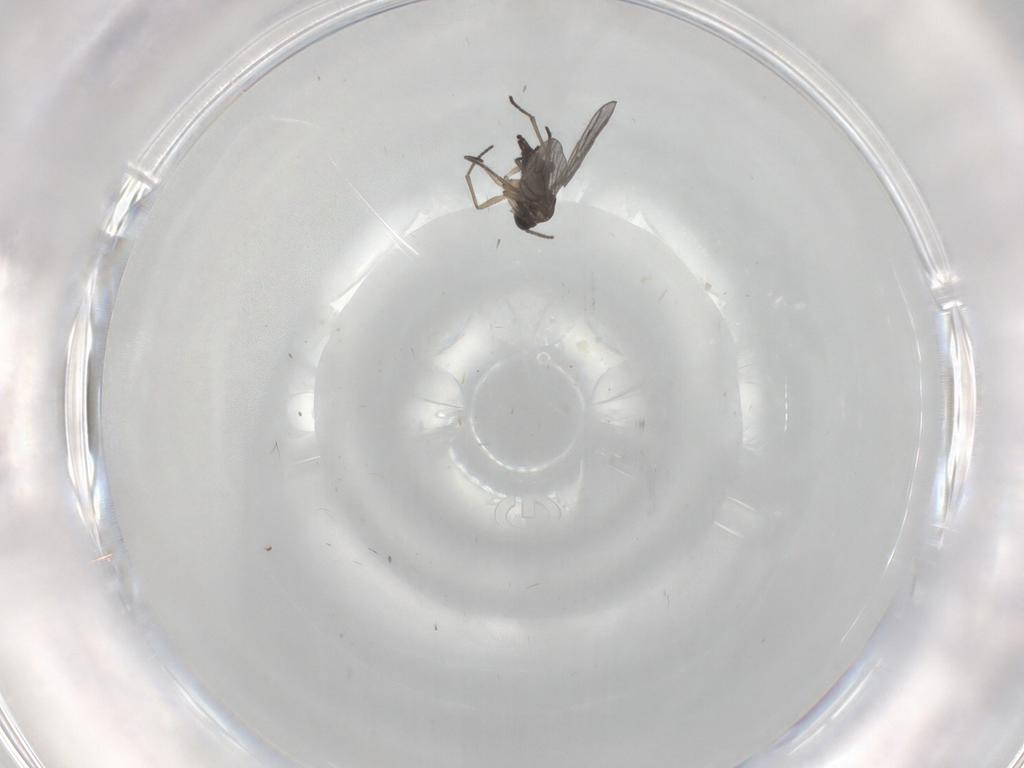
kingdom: Animalia
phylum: Arthropoda
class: Insecta
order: Diptera
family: Sciaridae
